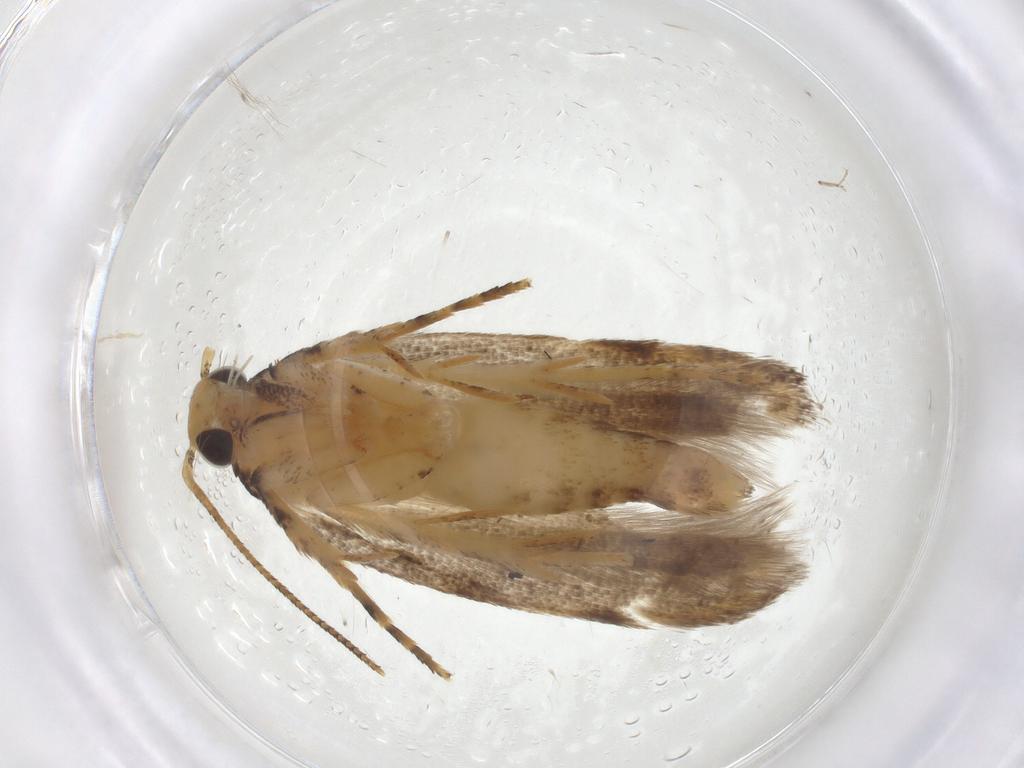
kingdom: Animalia
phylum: Arthropoda
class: Insecta
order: Lepidoptera
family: Gelechiidae
